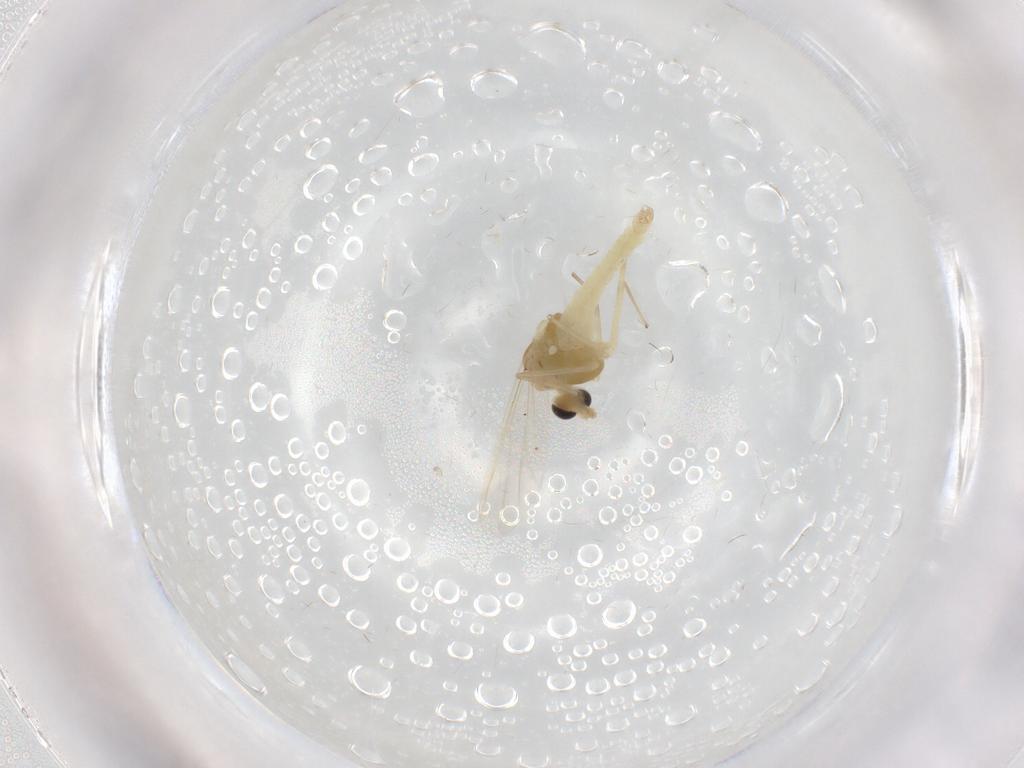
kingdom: Animalia
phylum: Arthropoda
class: Insecta
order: Diptera
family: Chironomidae
